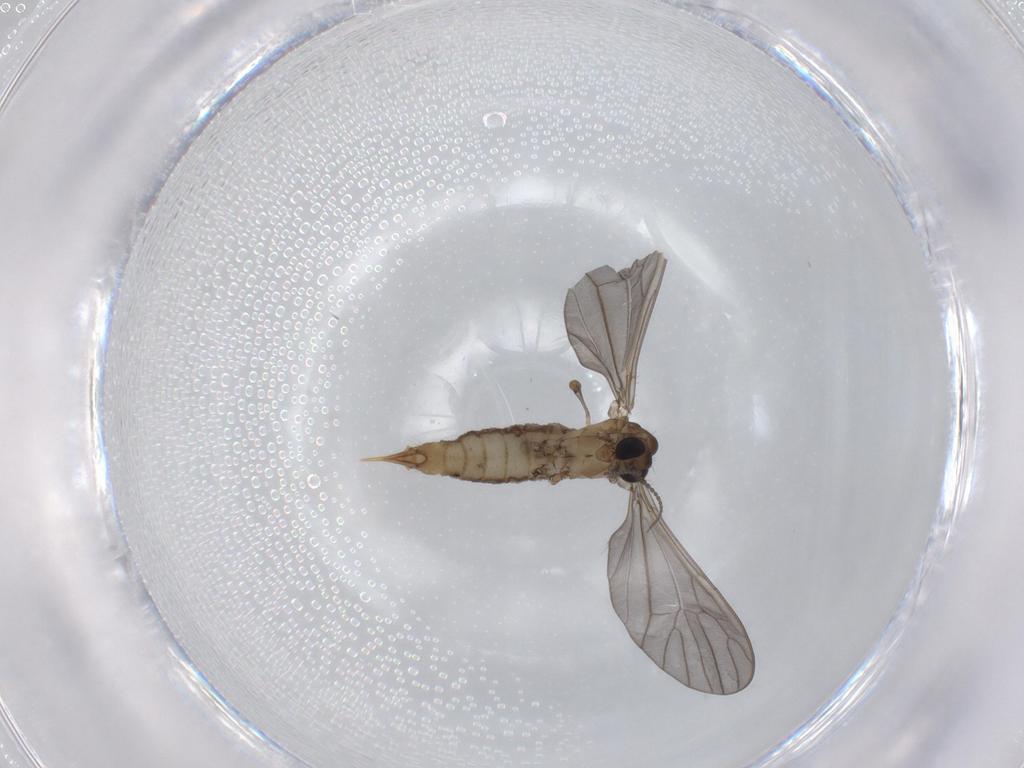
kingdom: Animalia
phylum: Arthropoda
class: Insecta
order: Diptera
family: Limoniidae
